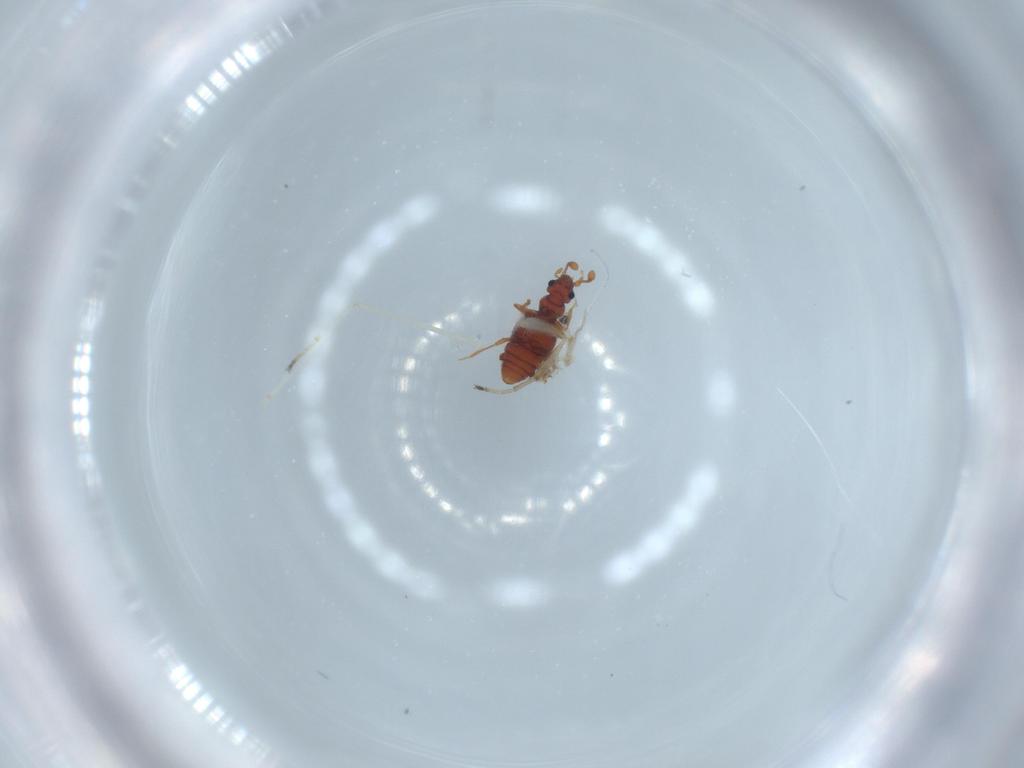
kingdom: Animalia
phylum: Arthropoda
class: Insecta
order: Coleoptera
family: Staphylinidae
